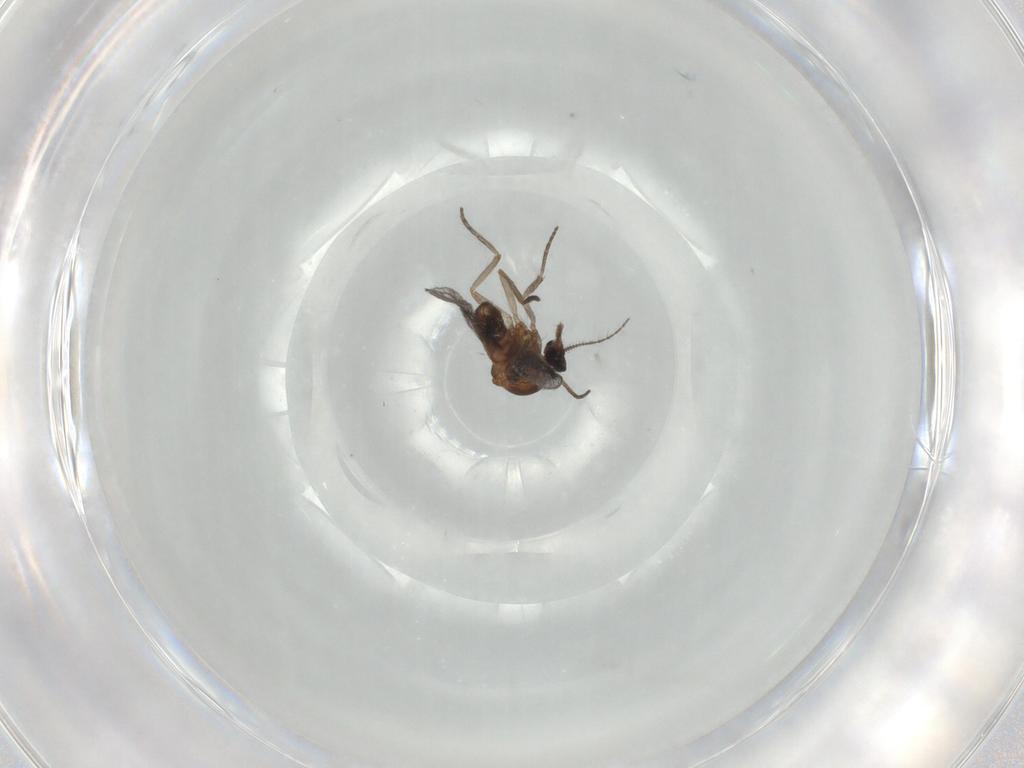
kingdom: Animalia
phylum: Arthropoda
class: Insecta
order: Diptera
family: Ceratopogonidae
